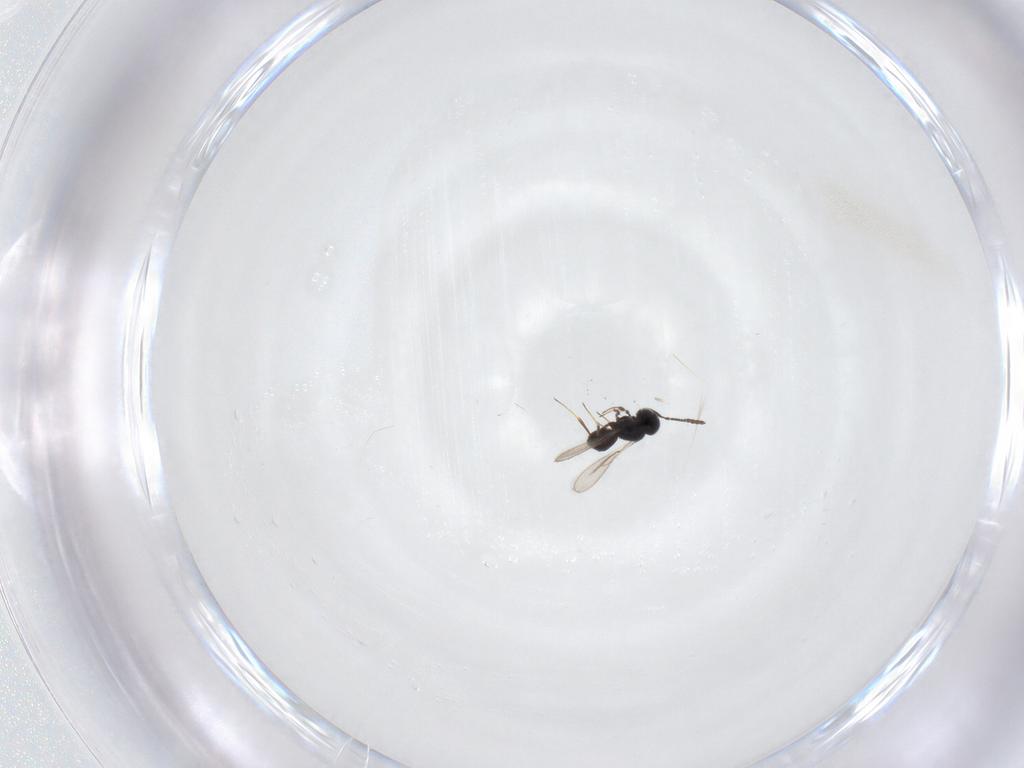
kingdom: Animalia
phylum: Arthropoda
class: Insecta
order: Hymenoptera
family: Scelionidae
